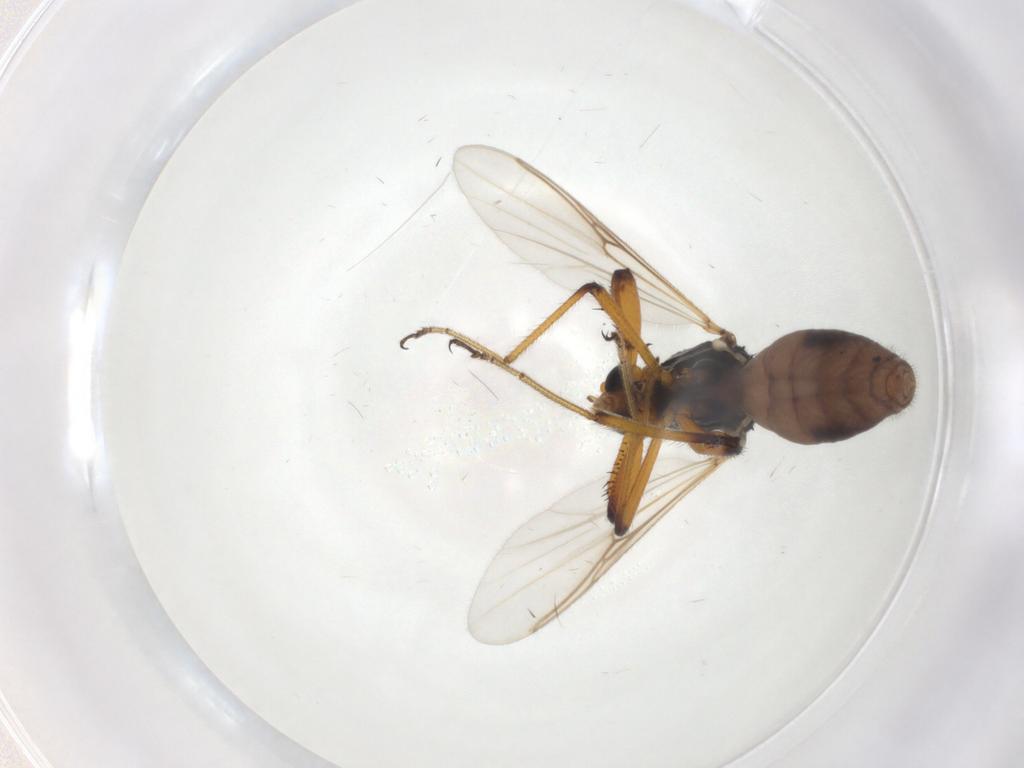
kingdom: Animalia
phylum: Arthropoda
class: Insecta
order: Diptera
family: Ceratopogonidae
